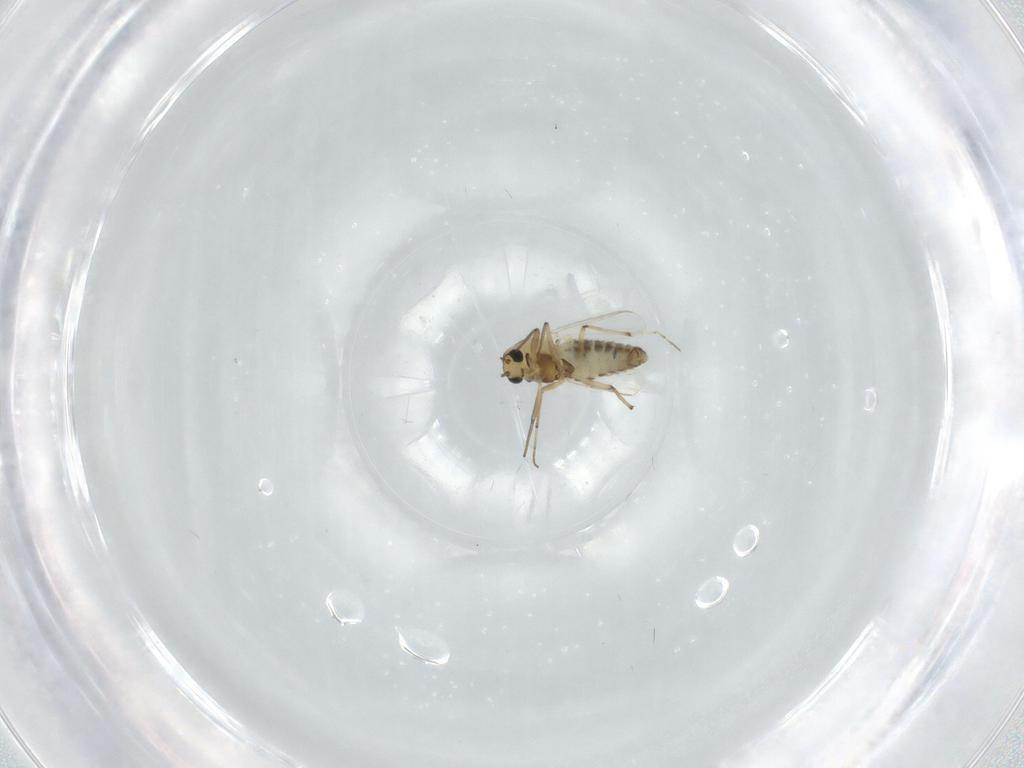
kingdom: Animalia
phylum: Arthropoda
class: Insecta
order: Diptera
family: Chironomidae
